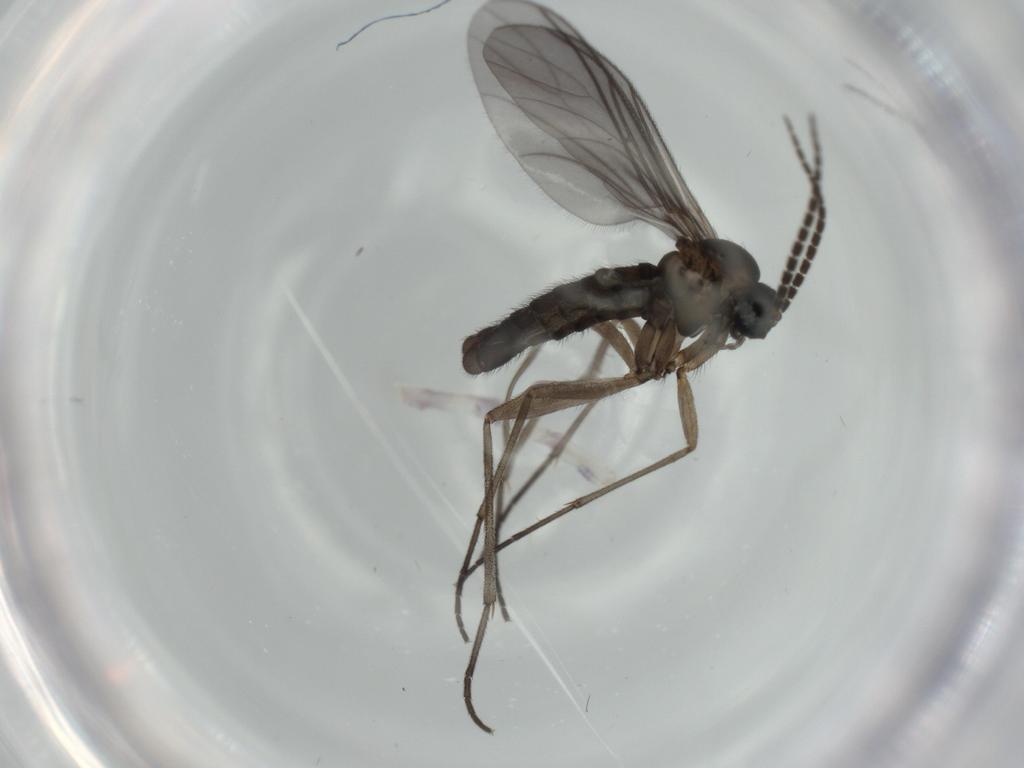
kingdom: Animalia
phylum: Arthropoda
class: Insecta
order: Diptera
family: Sciaridae
